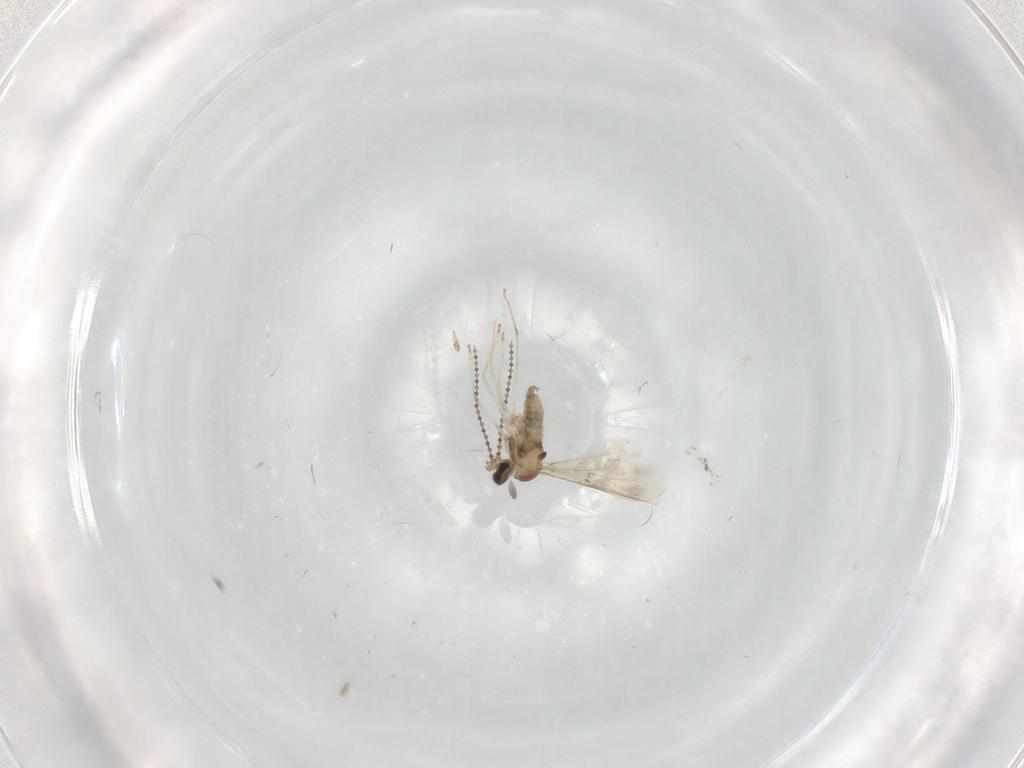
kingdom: Animalia
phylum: Arthropoda
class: Insecta
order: Diptera
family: Cecidomyiidae
